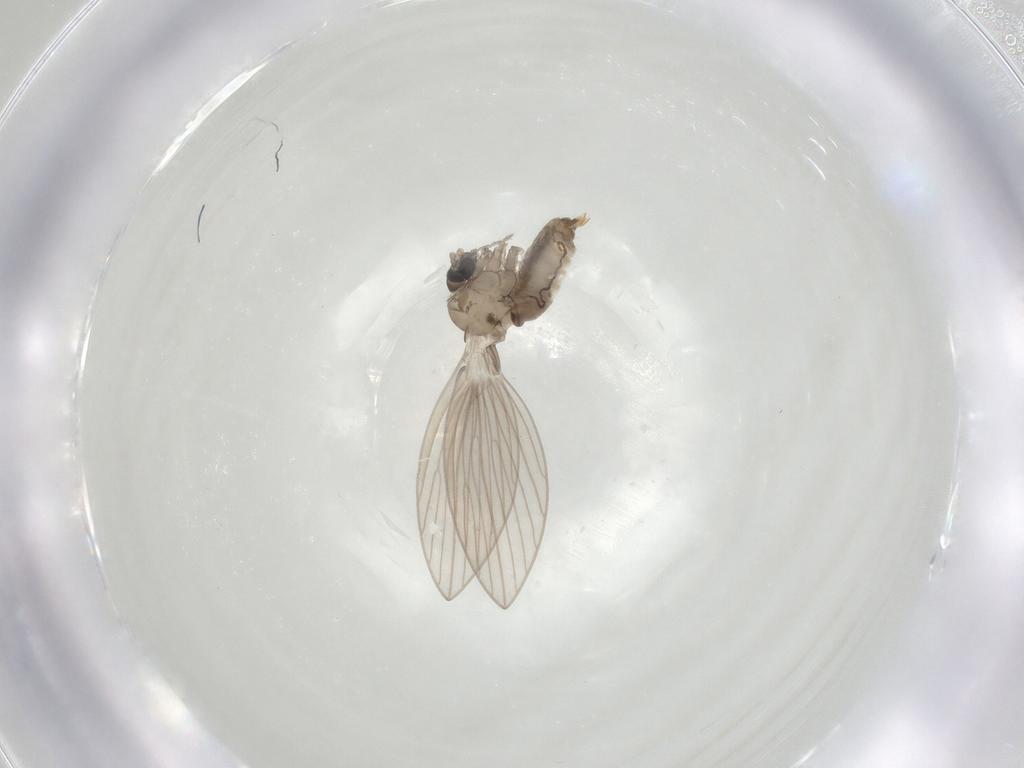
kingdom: Animalia
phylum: Arthropoda
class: Insecta
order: Diptera
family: Psychodidae
